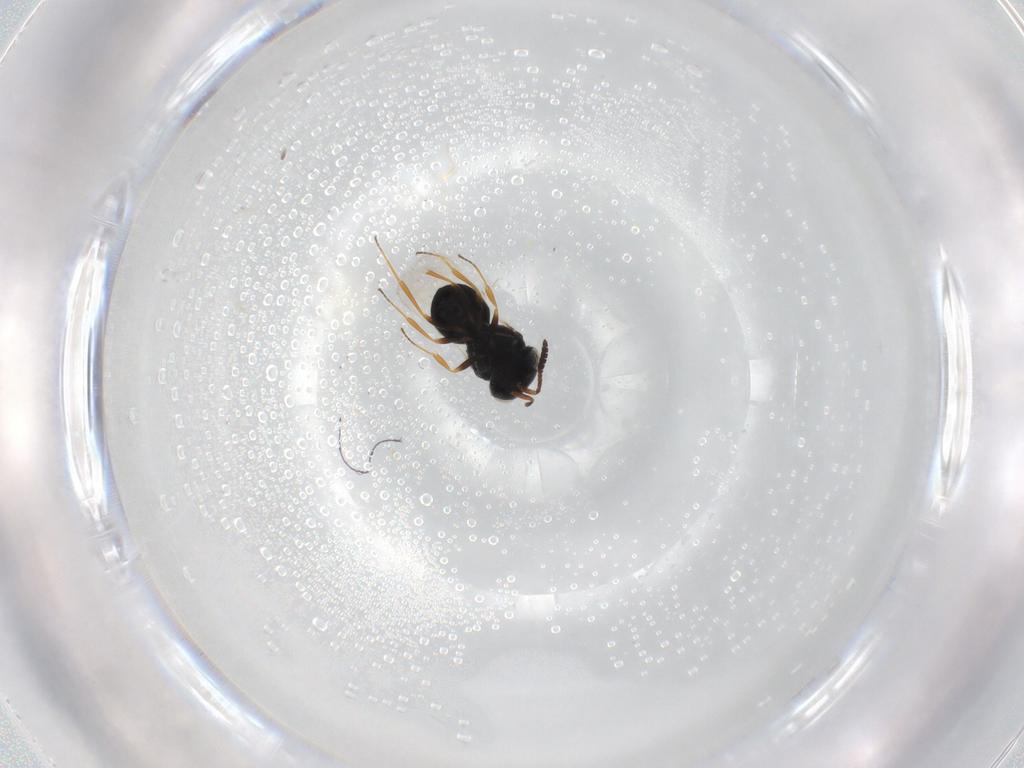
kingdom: Animalia
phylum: Arthropoda
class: Insecta
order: Hymenoptera
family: Scelionidae
